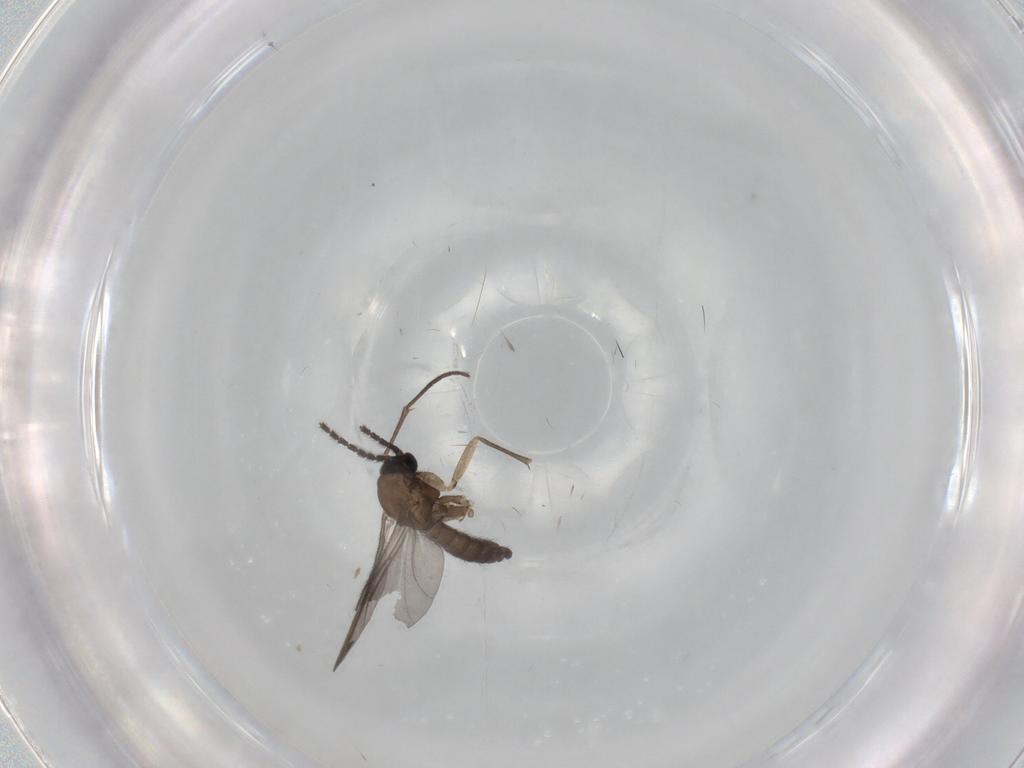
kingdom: Animalia
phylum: Arthropoda
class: Insecta
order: Diptera
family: Sciaridae
